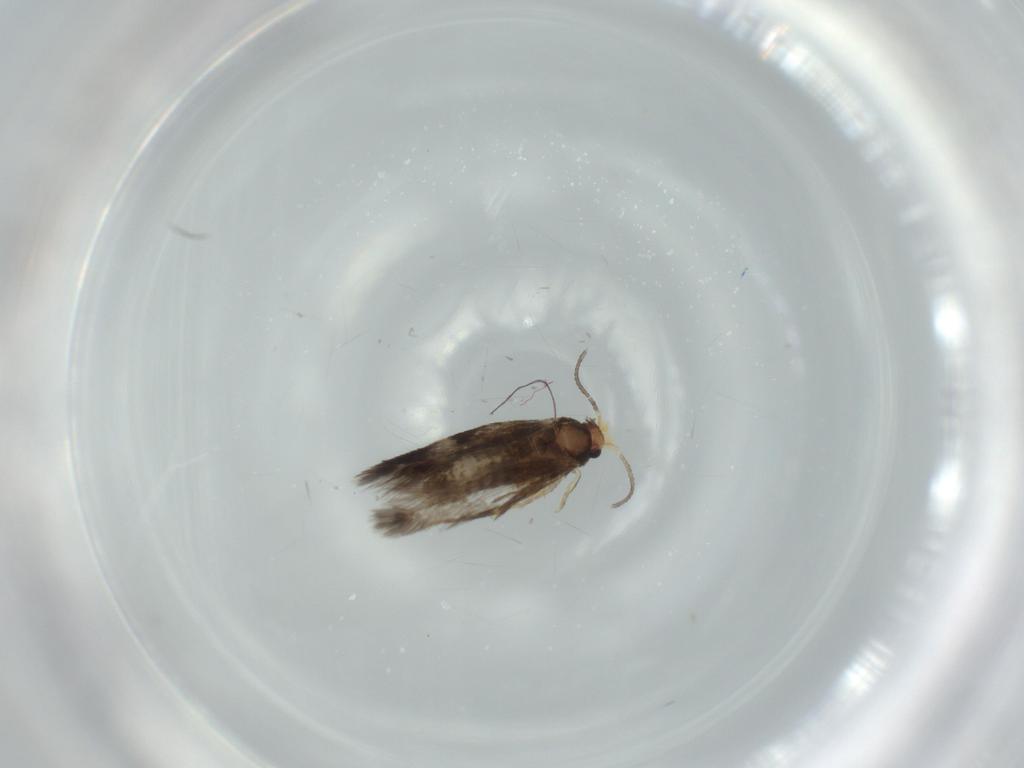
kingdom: Animalia
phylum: Arthropoda
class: Insecta
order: Lepidoptera
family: Nepticulidae
